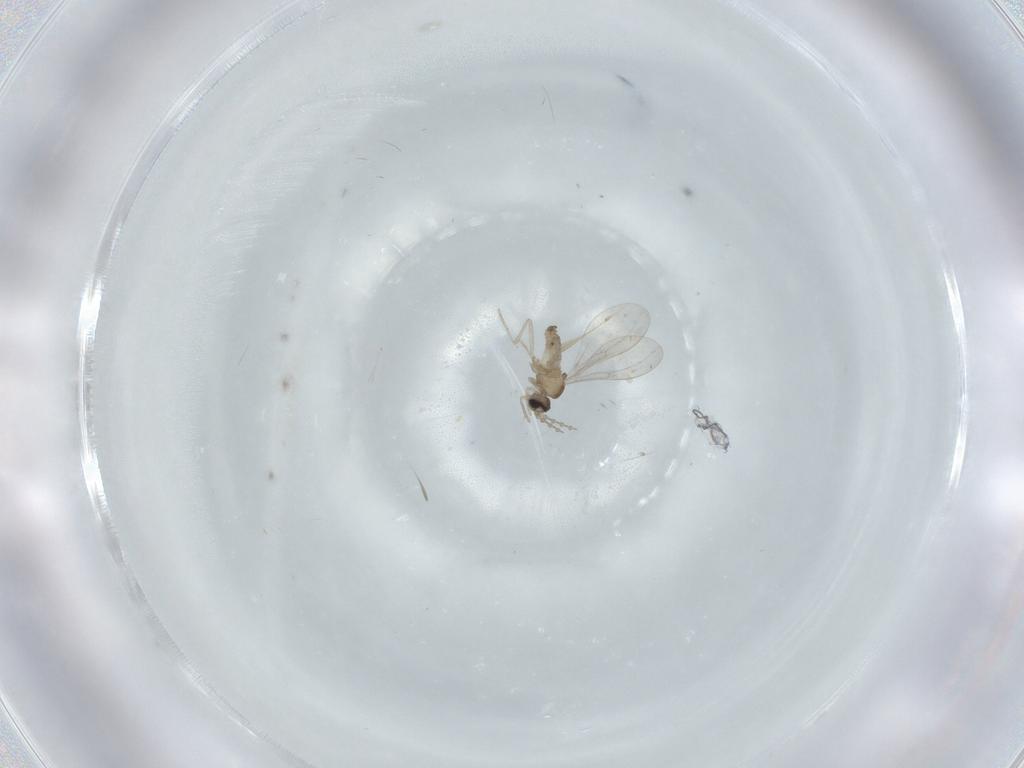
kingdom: Animalia
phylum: Arthropoda
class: Insecta
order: Diptera
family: Cecidomyiidae
